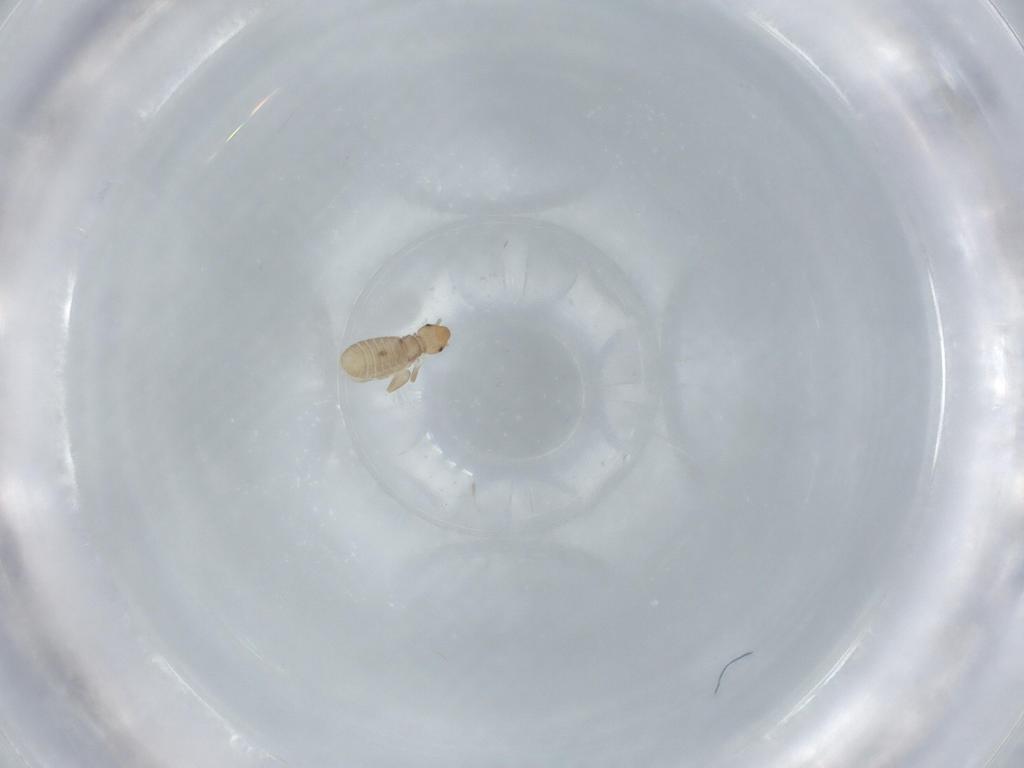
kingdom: Animalia
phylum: Arthropoda
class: Insecta
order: Psocodea
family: Liposcelididae
